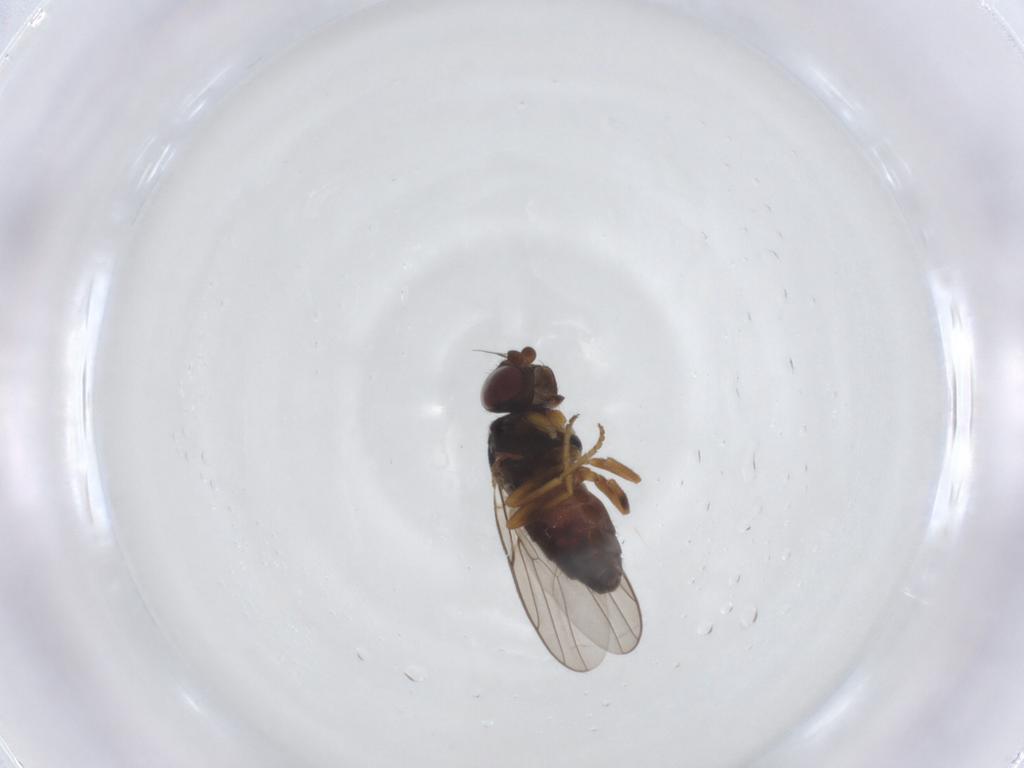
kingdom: Animalia
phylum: Arthropoda
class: Insecta
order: Diptera
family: Chloropidae
